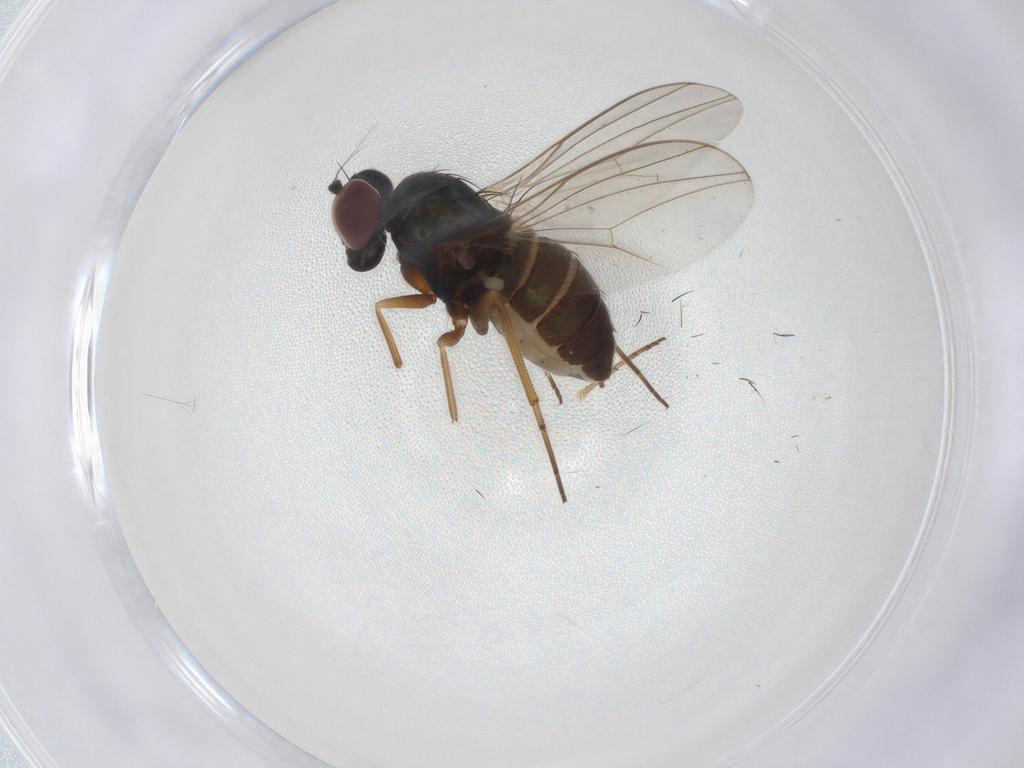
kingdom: Animalia
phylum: Arthropoda
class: Insecta
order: Diptera
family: Dolichopodidae
